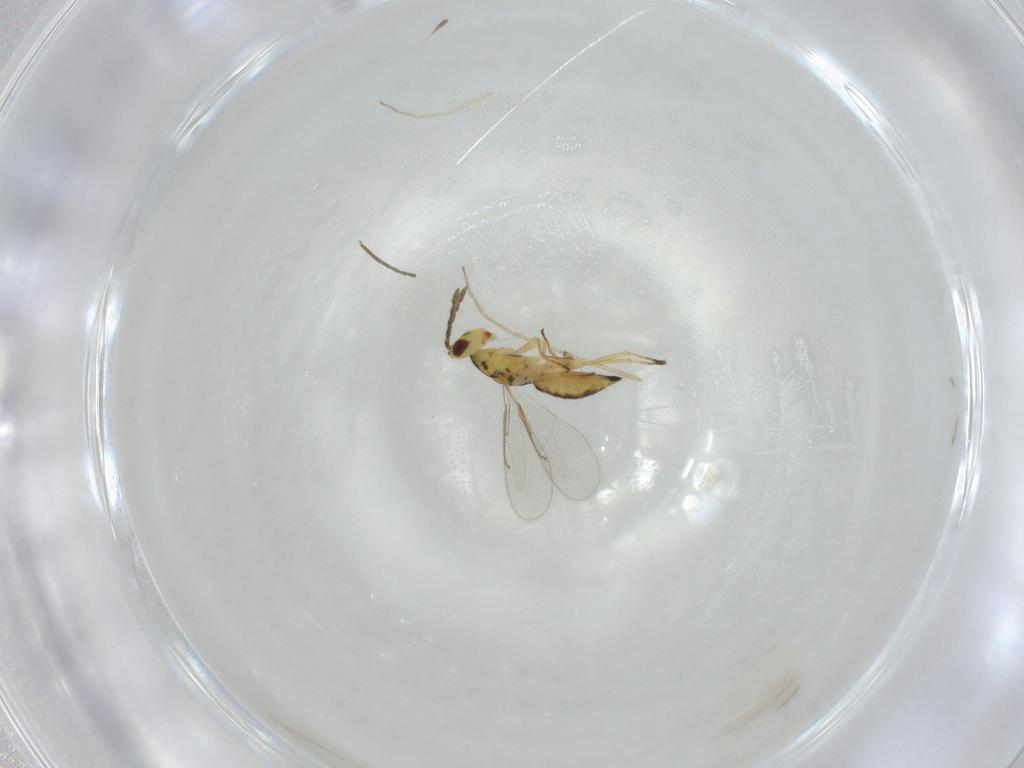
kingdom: Animalia
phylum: Arthropoda
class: Insecta
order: Hymenoptera
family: Eulophidae
